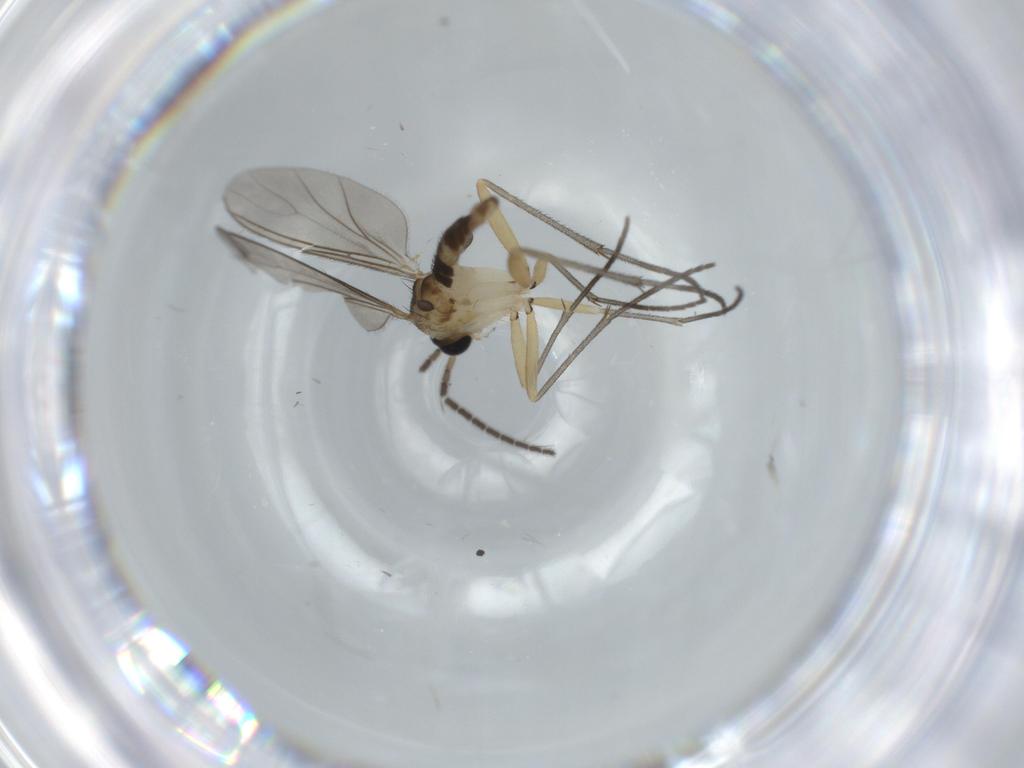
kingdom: Animalia
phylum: Arthropoda
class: Insecta
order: Diptera
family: Sciaridae
